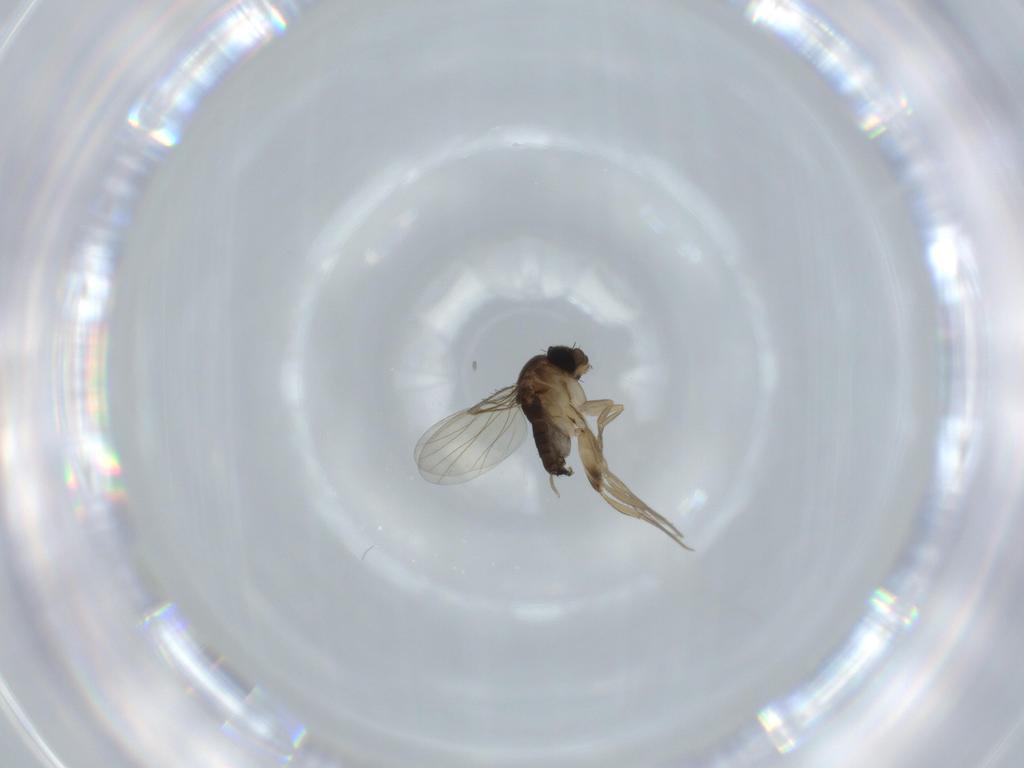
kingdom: Animalia
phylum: Arthropoda
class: Insecta
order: Diptera
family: Phoridae
